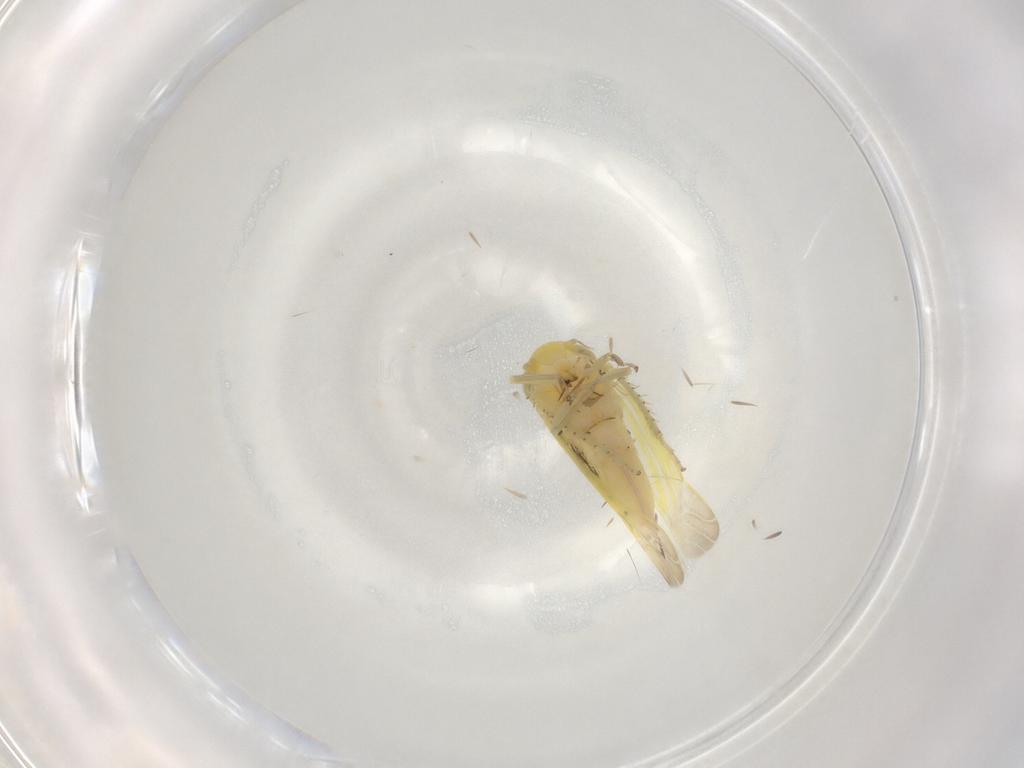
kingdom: Animalia
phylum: Arthropoda
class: Insecta
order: Hemiptera
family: Cicadellidae
